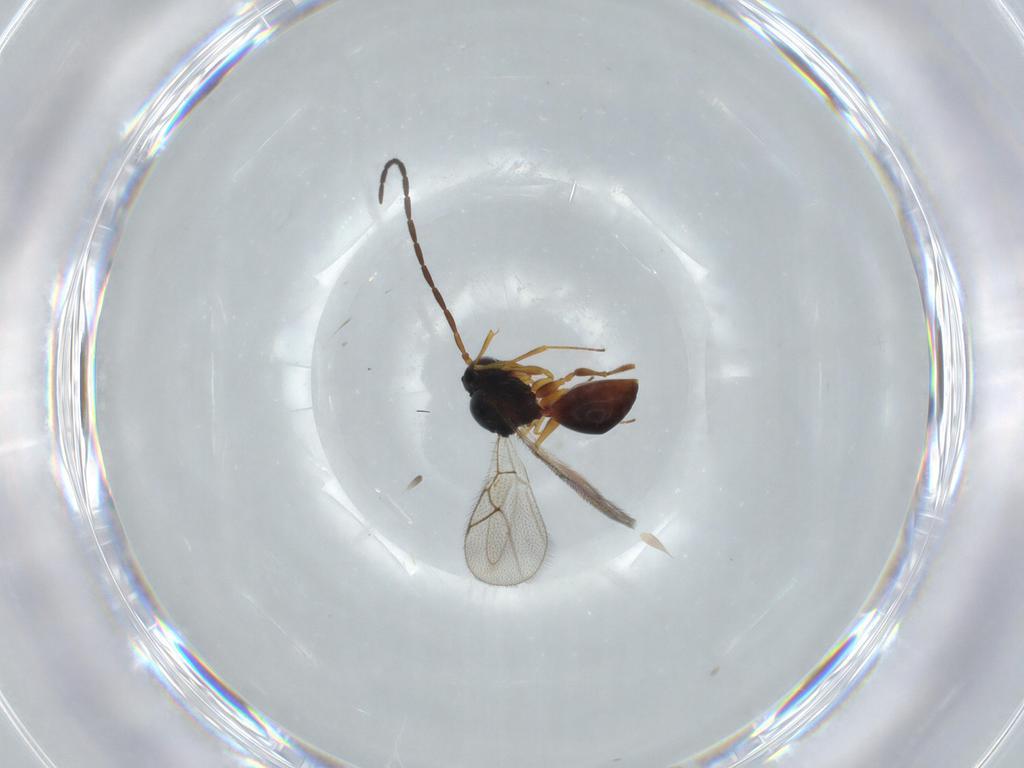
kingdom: Animalia
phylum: Arthropoda
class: Insecta
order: Hymenoptera
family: Figitidae
